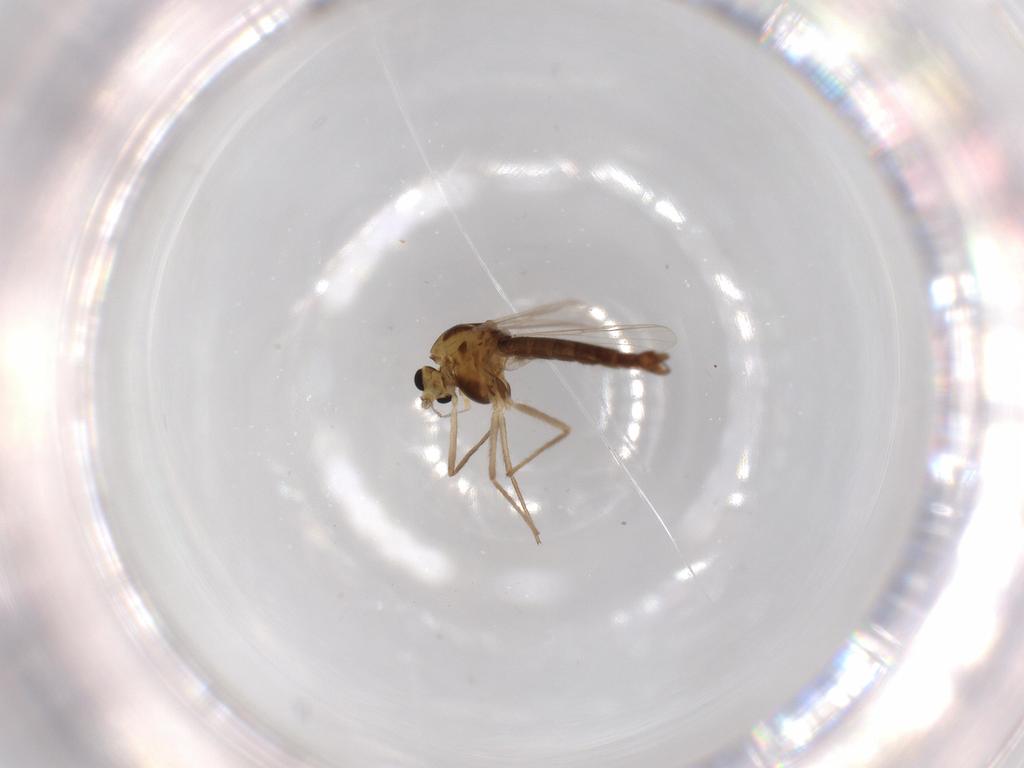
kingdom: Animalia
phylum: Arthropoda
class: Insecta
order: Diptera
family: Chironomidae
